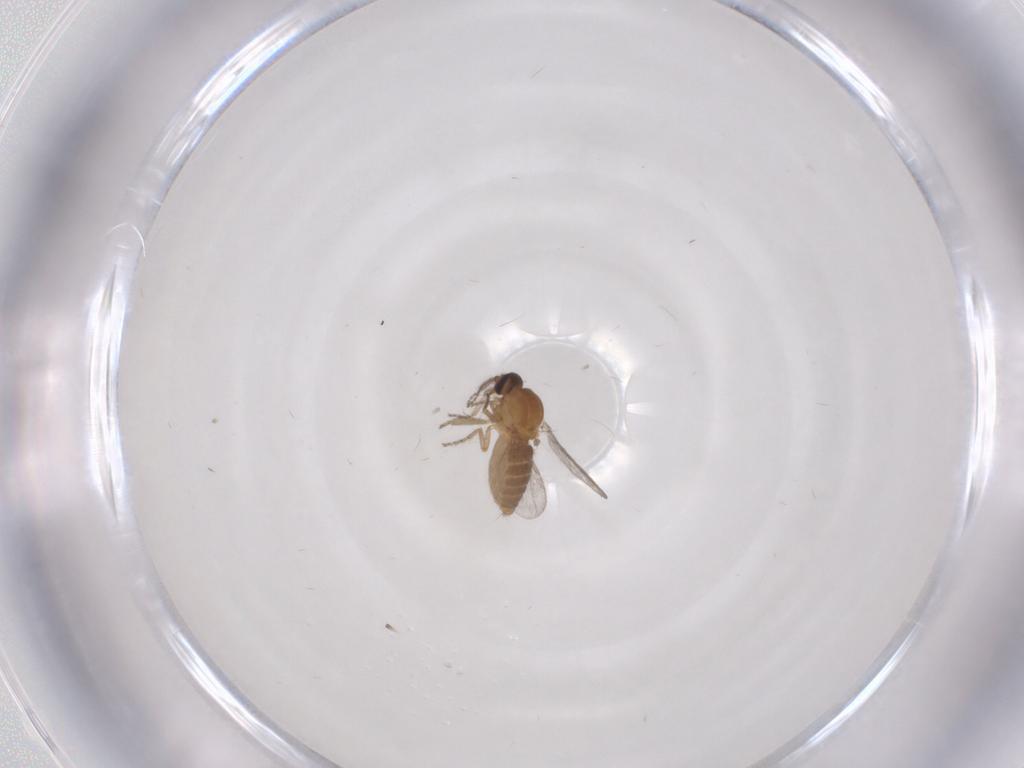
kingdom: Animalia
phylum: Arthropoda
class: Insecta
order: Diptera
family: Ceratopogonidae
